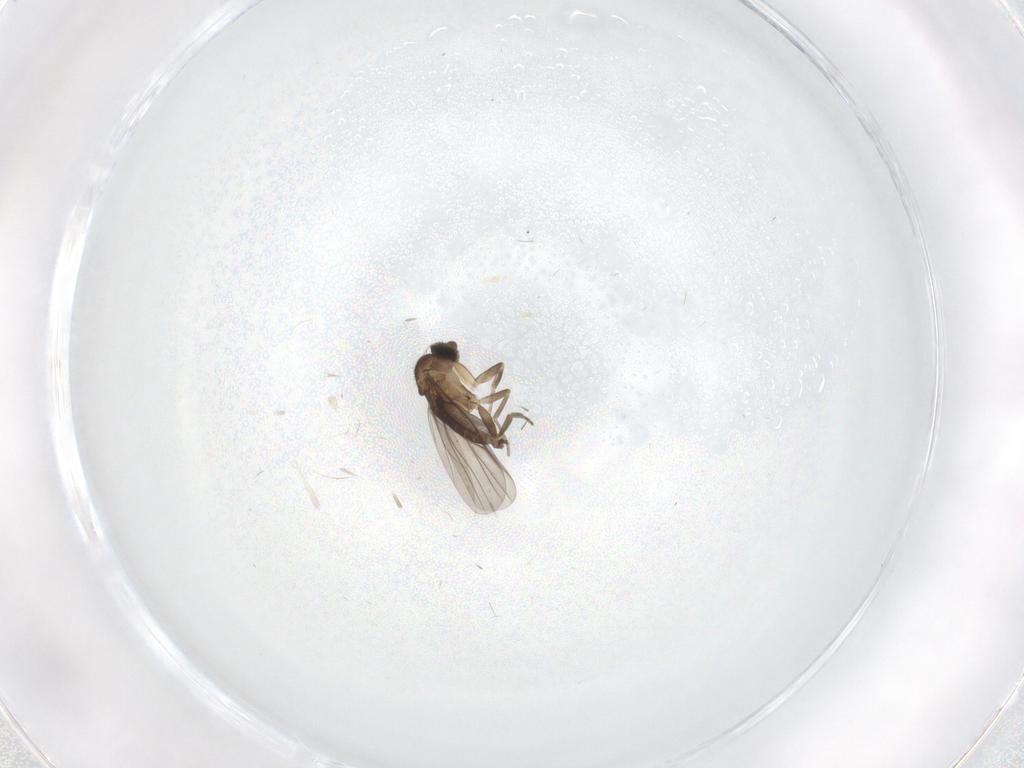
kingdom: Animalia
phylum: Arthropoda
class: Insecta
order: Diptera
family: Phoridae
